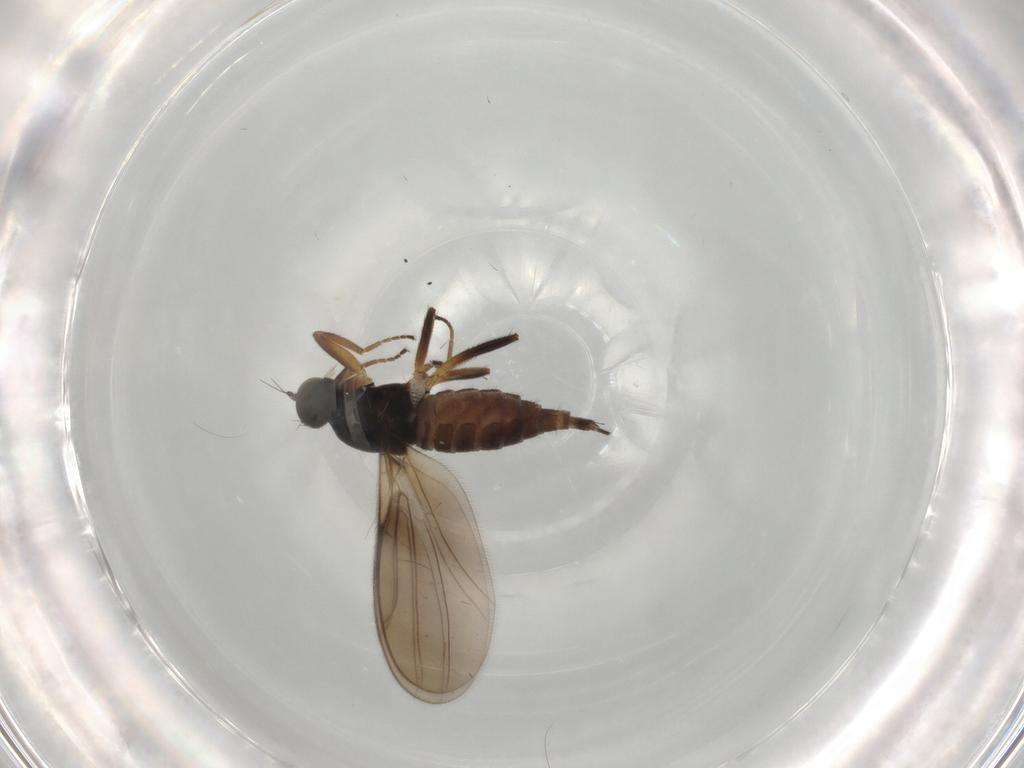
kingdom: Animalia
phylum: Arthropoda
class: Insecta
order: Diptera
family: Hybotidae
